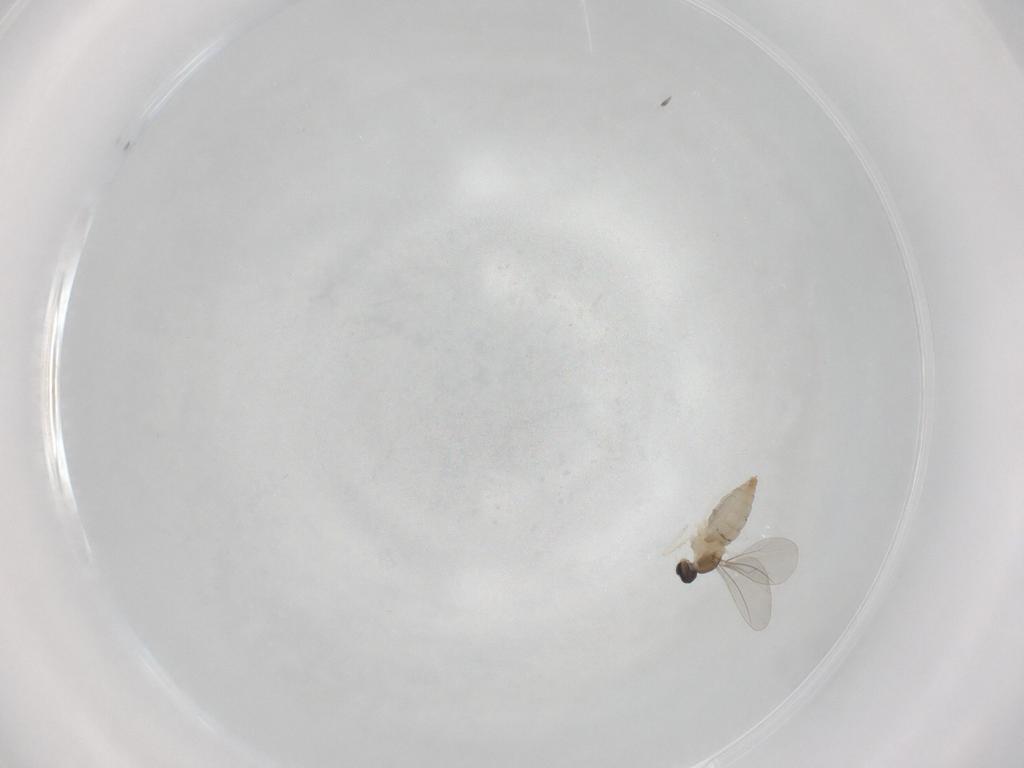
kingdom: Animalia
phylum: Arthropoda
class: Insecta
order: Diptera
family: Cecidomyiidae
